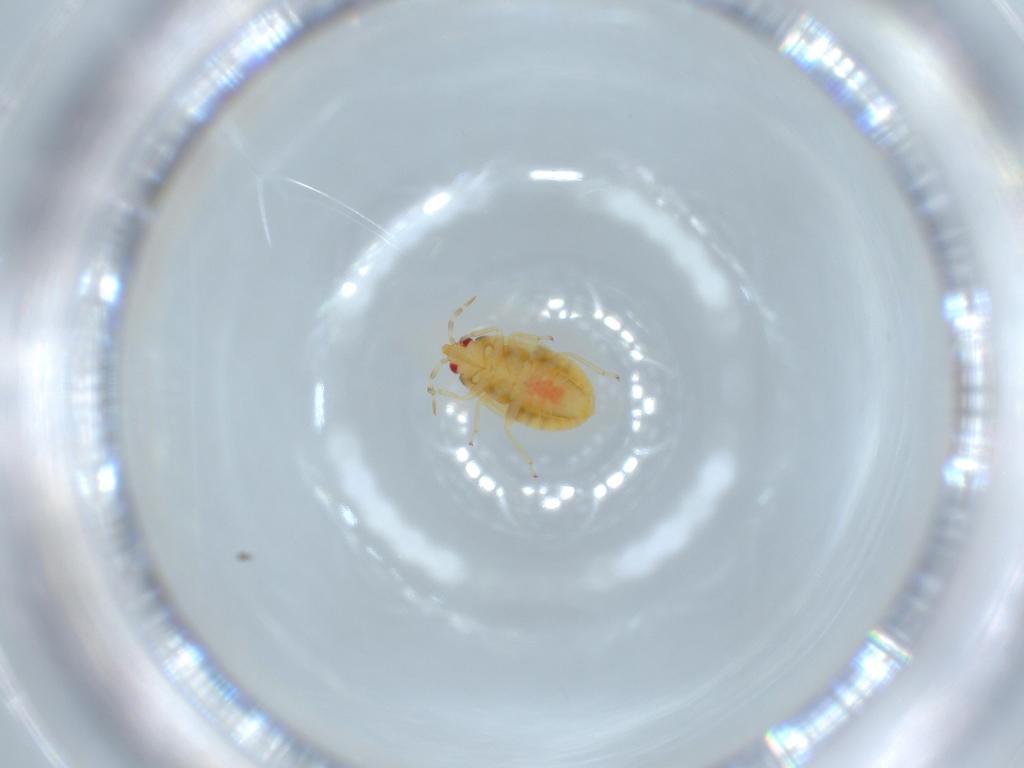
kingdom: Animalia
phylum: Arthropoda
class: Insecta
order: Hemiptera
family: Anthocoridae
